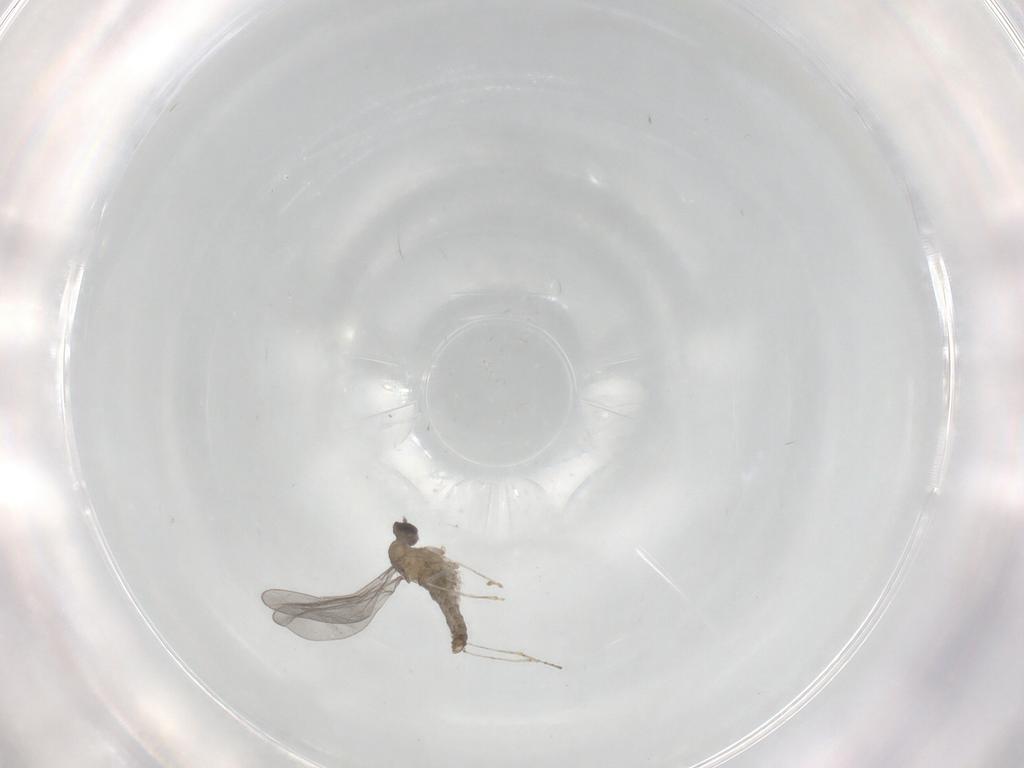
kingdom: Animalia
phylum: Arthropoda
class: Insecta
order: Diptera
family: Cecidomyiidae
